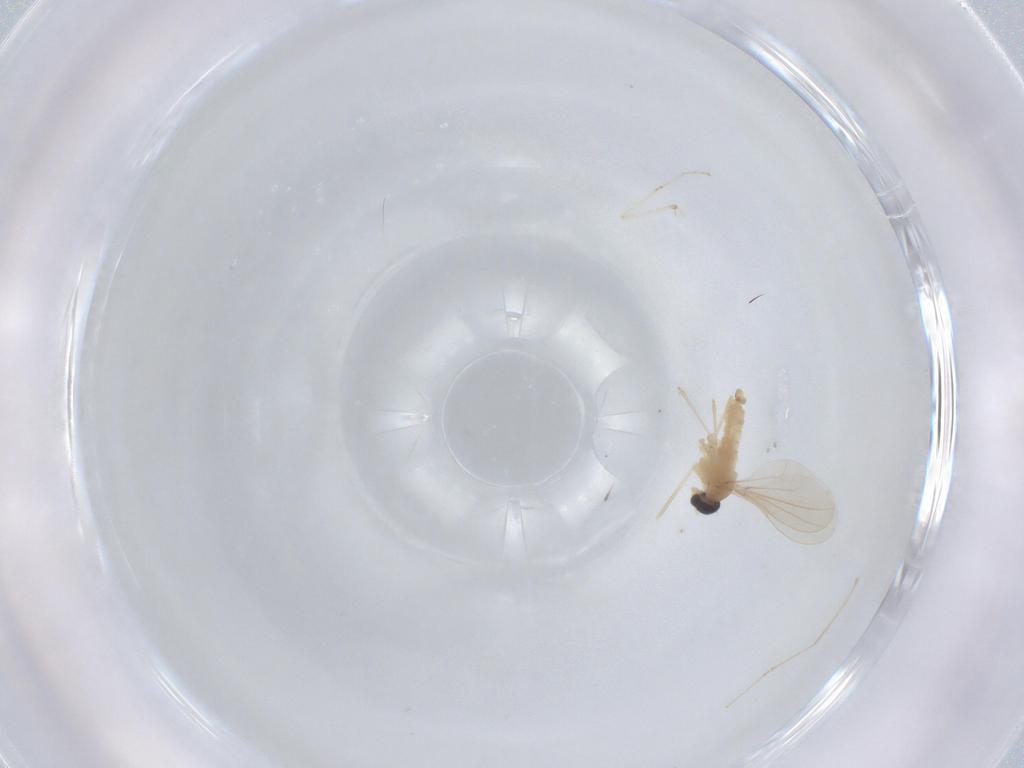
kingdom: Animalia
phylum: Arthropoda
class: Insecta
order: Diptera
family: Cecidomyiidae
